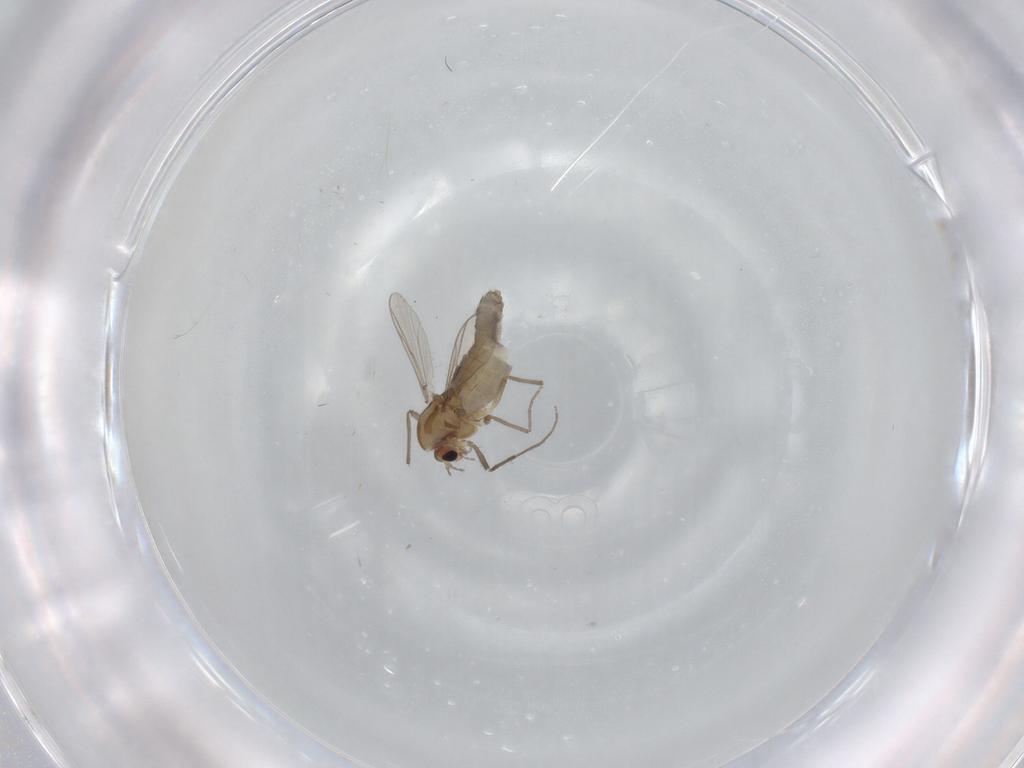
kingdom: Animalia
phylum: Arthropoda
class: Insecta
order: Diptera
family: Chironomidae
